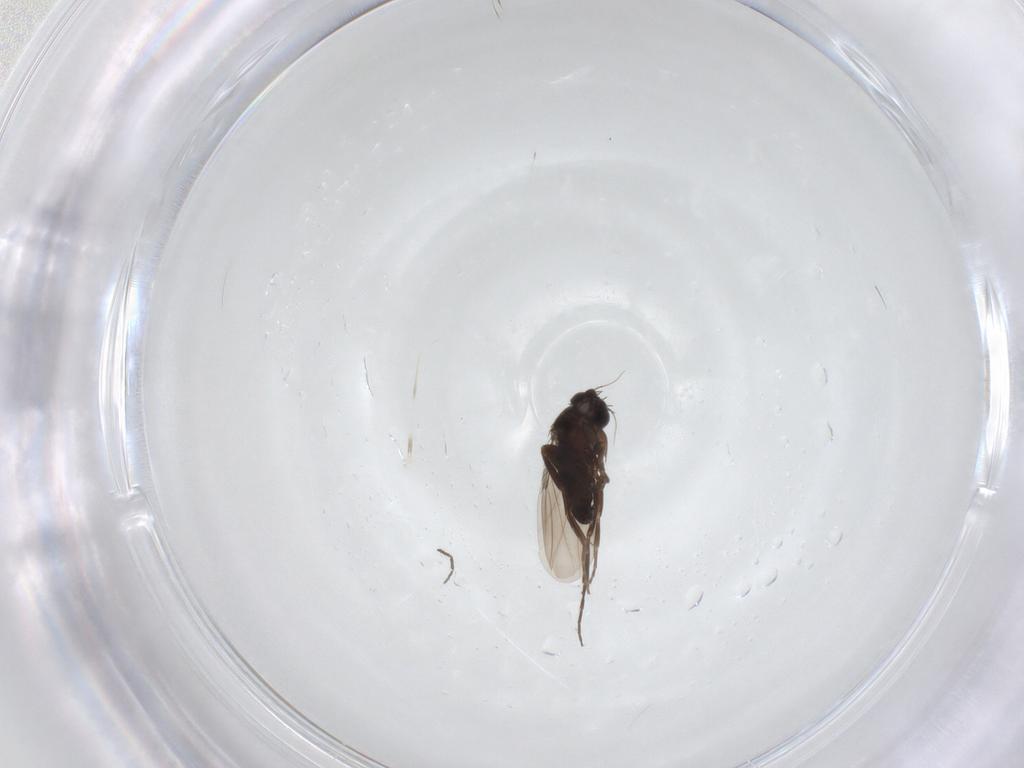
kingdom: Animalia
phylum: Arthropoda
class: Insecta
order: Diptera
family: Phoridae
